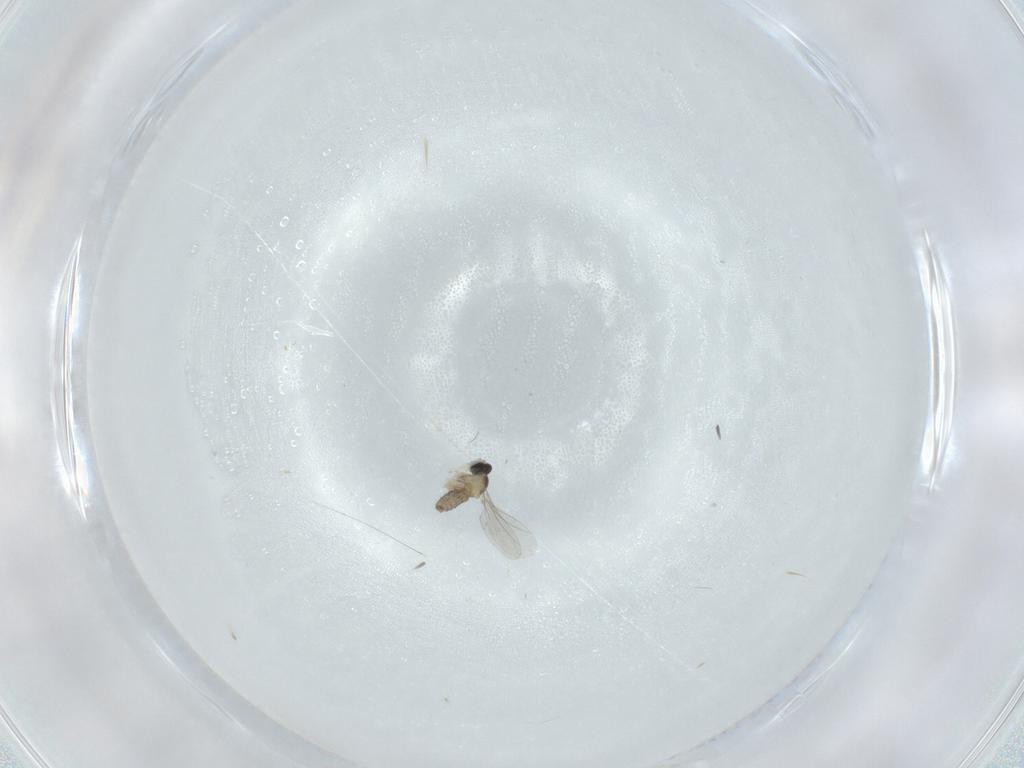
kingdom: Animalia
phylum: Arthropoda
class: Insecta
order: Diptera
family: Cecidomyiidae
